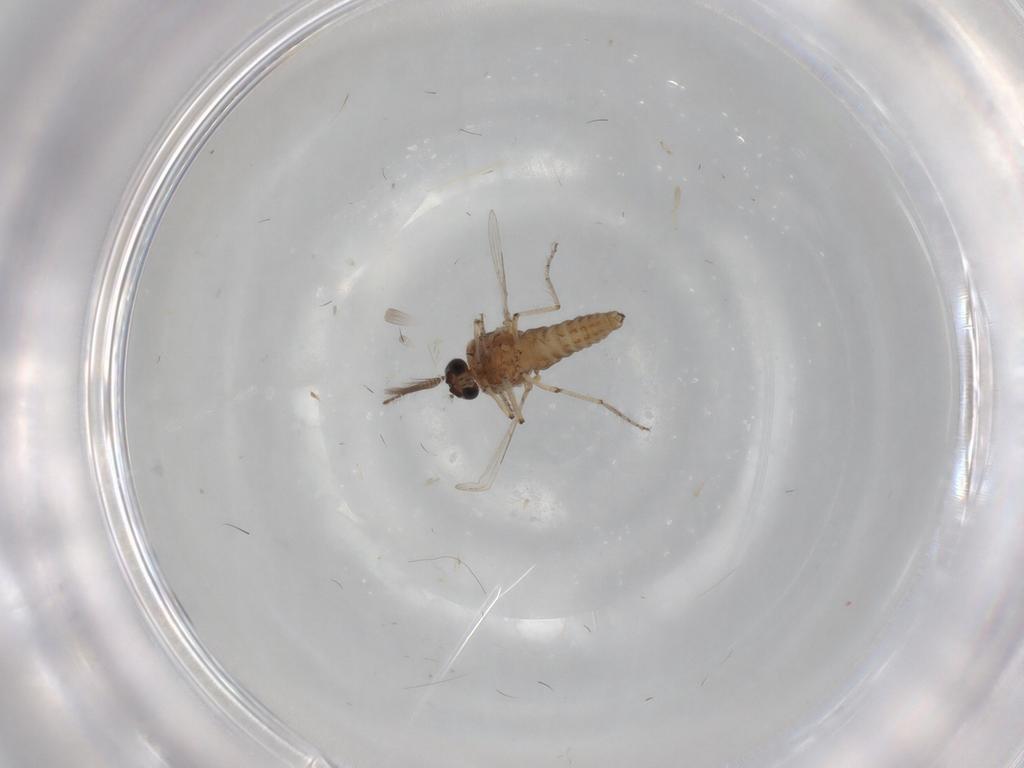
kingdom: Animalia
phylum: Arthropoda
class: Insecta
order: Diptera
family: Ceratopogonidae
